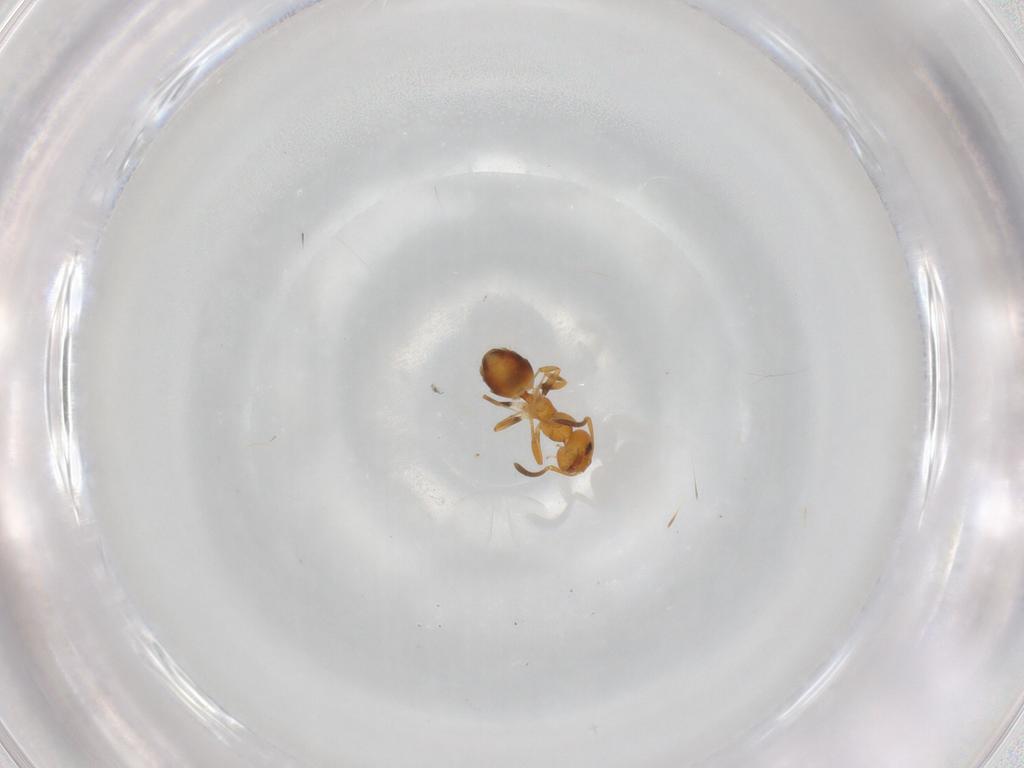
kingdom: Animalia
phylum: Arthropoda
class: Insecta
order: Hymenoptera
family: Formicidae
